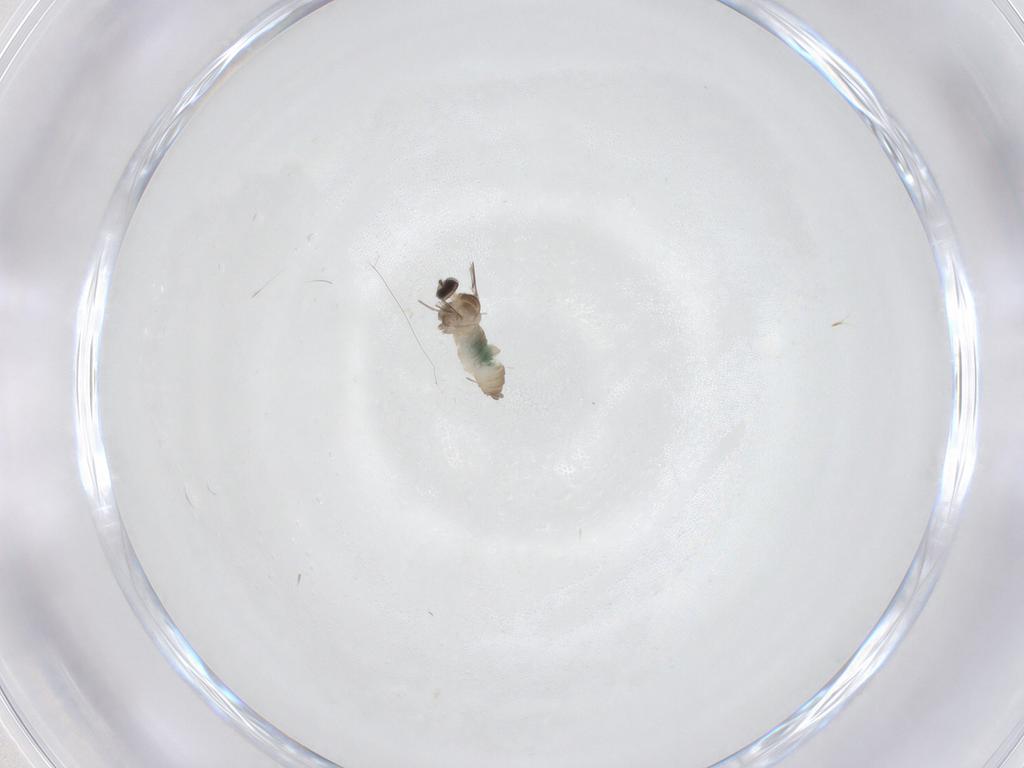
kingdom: Animalia
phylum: Arthropoda
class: Insecta
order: Diptera
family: Cecidomyiidae
